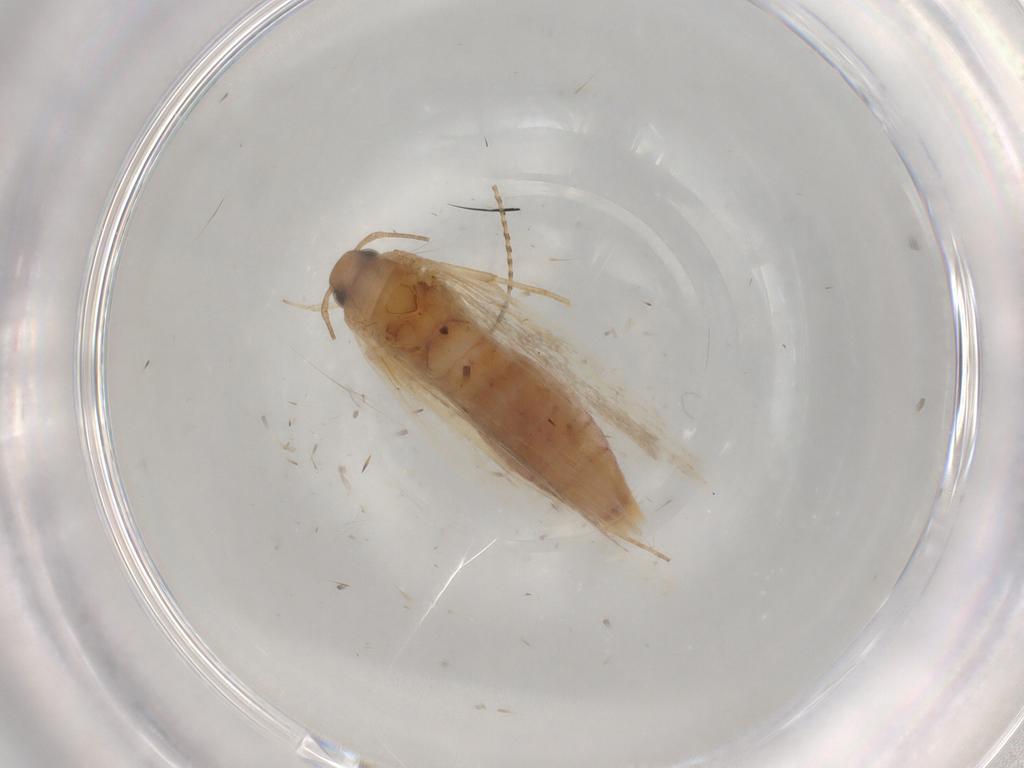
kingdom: Animalia
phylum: Arthropoda
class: Insecta
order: Lepidoptera
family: Plutellidae
